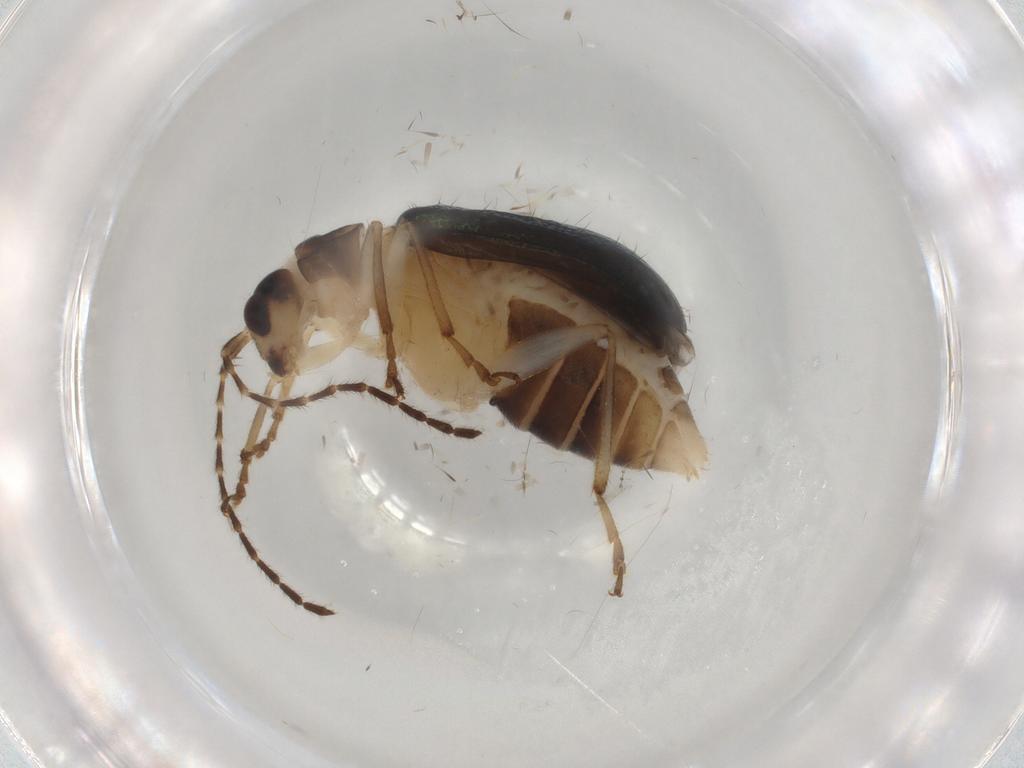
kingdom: Animalia
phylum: Arthropoda
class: Insecta
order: Coleoptera
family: Chrysomelidae
